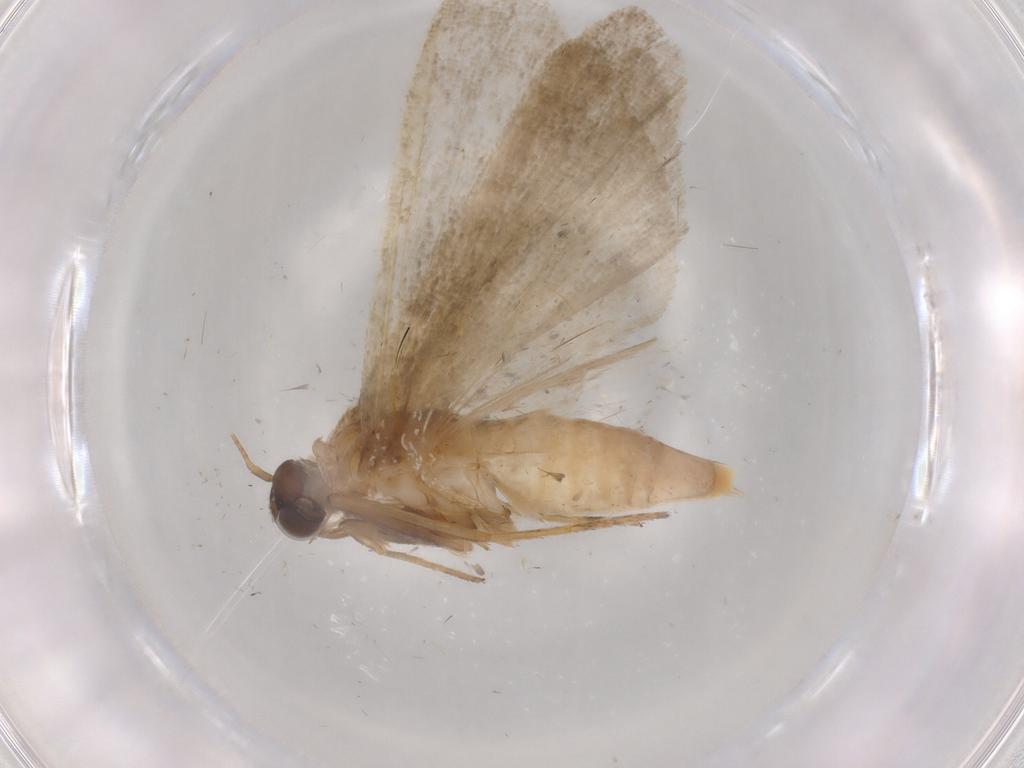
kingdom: Animalia
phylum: Arthropoda
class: Insecta
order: Lepidoptera
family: Noctuidae
